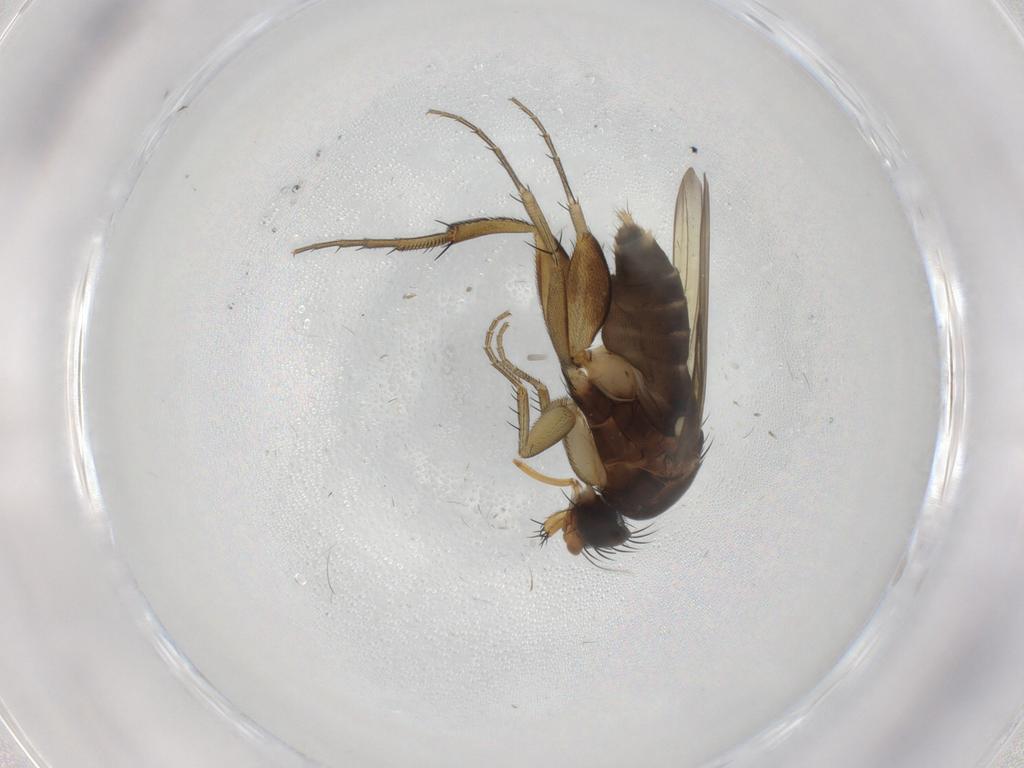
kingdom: Animalia
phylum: Arthropoda
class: Insecta
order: Diptera
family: Phoridae
